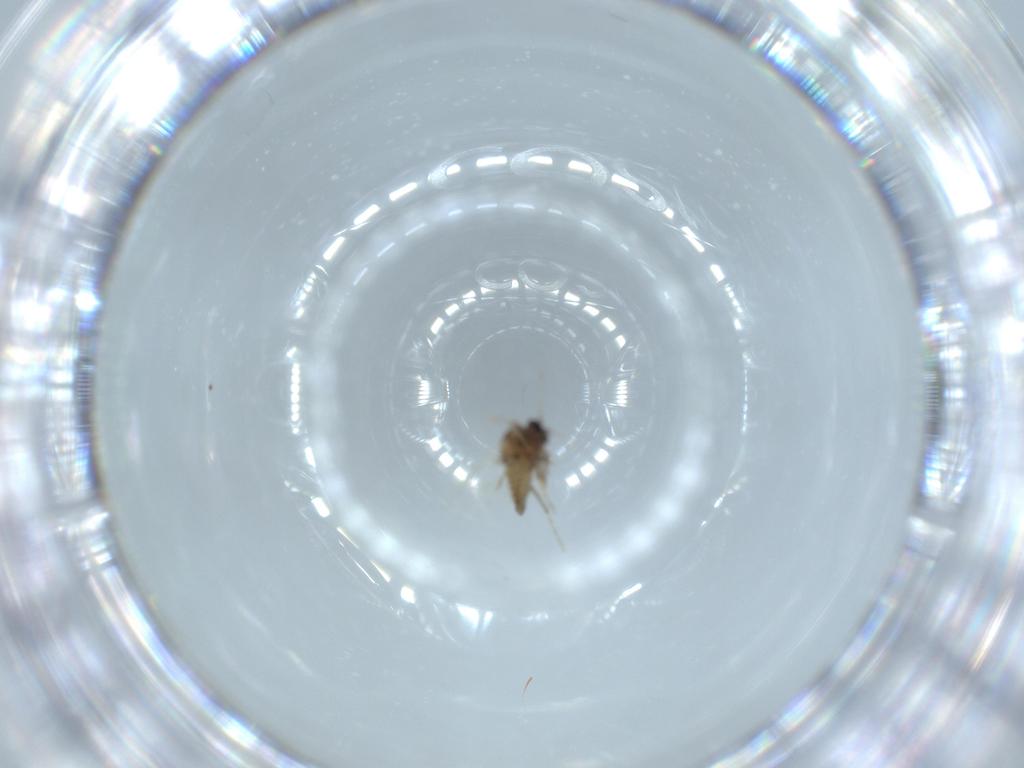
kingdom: Animalia
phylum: Arthropoda
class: Insecta
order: Diptera
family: Ceratopogonidae
